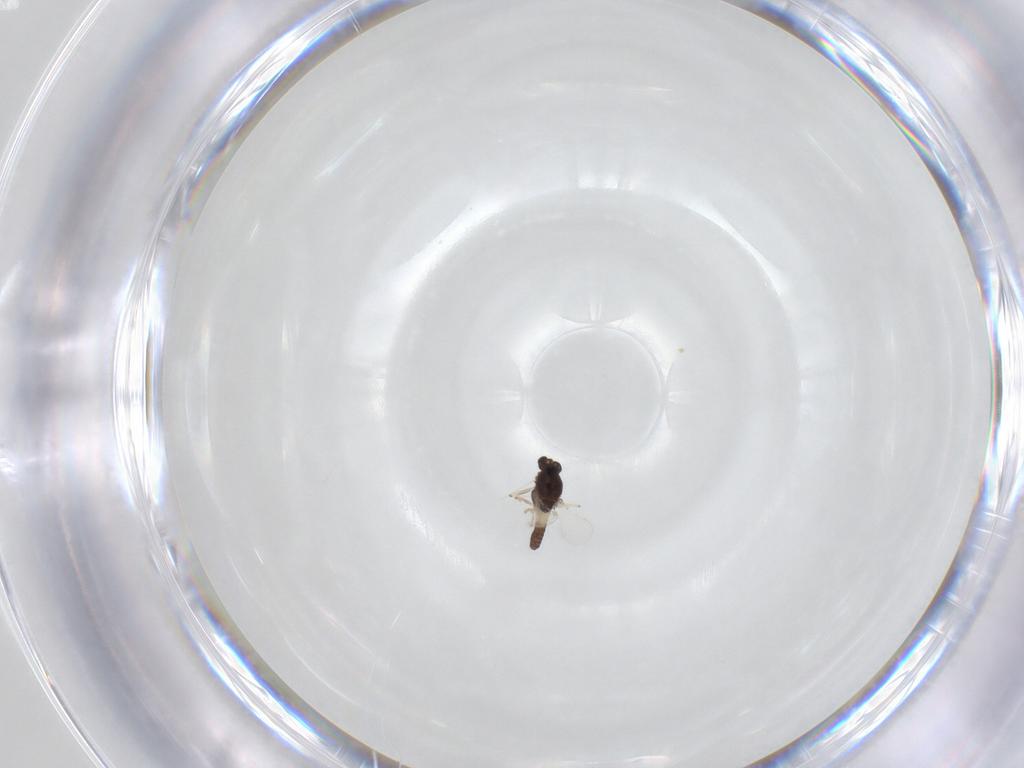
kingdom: Animalia
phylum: Arthropoda
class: Insecta
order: Diptera
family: Chironomidae
